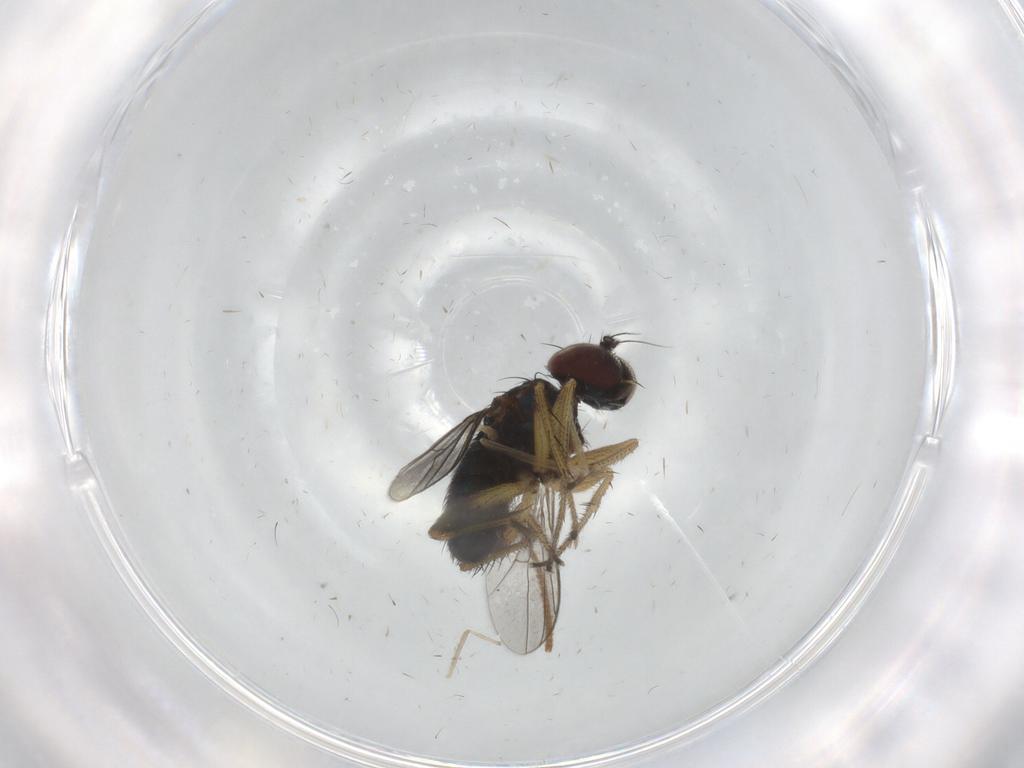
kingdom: Animalia
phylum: Arthropoda
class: Insecta
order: Diptera
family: Dolichopodidae
